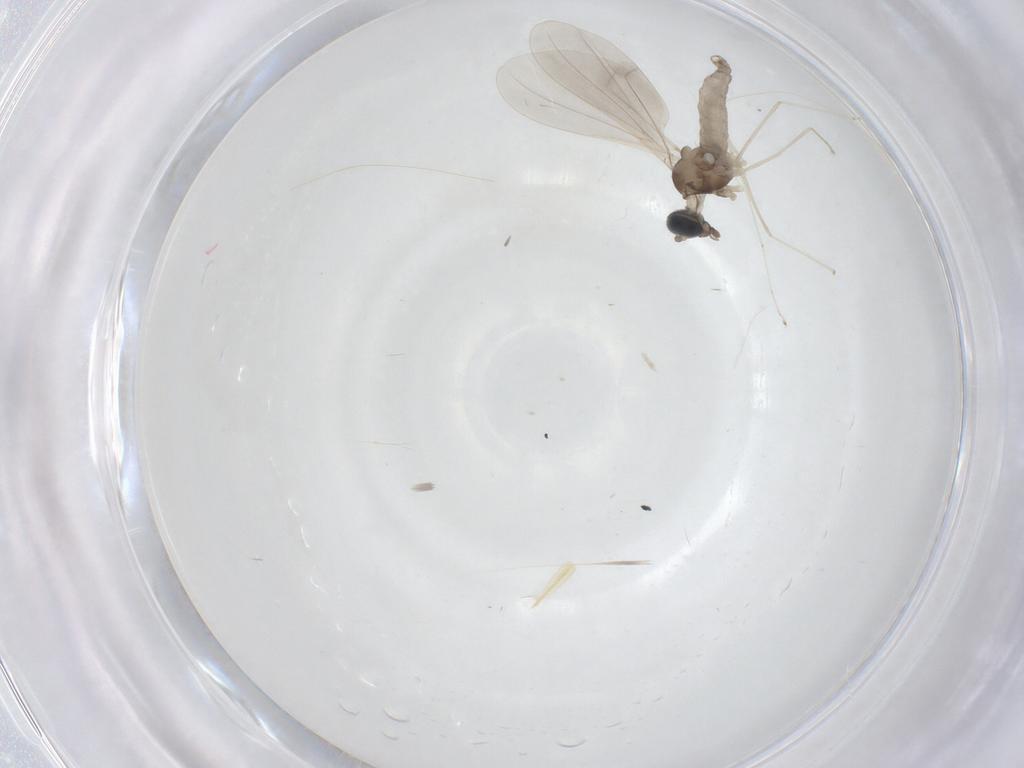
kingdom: Animalia
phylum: Arthropoda
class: Insecta
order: Diptera
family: Cecidomyiidae
